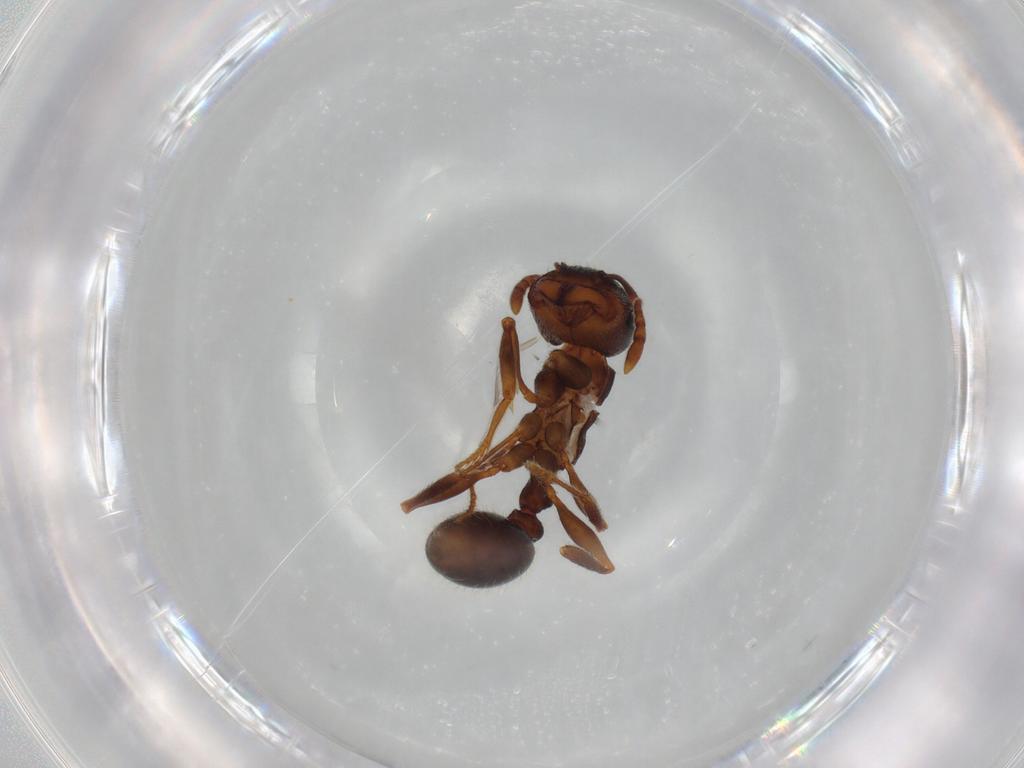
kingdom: Animalia
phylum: Arthropoda
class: Insecta
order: Hymenoptera
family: Formicidae
